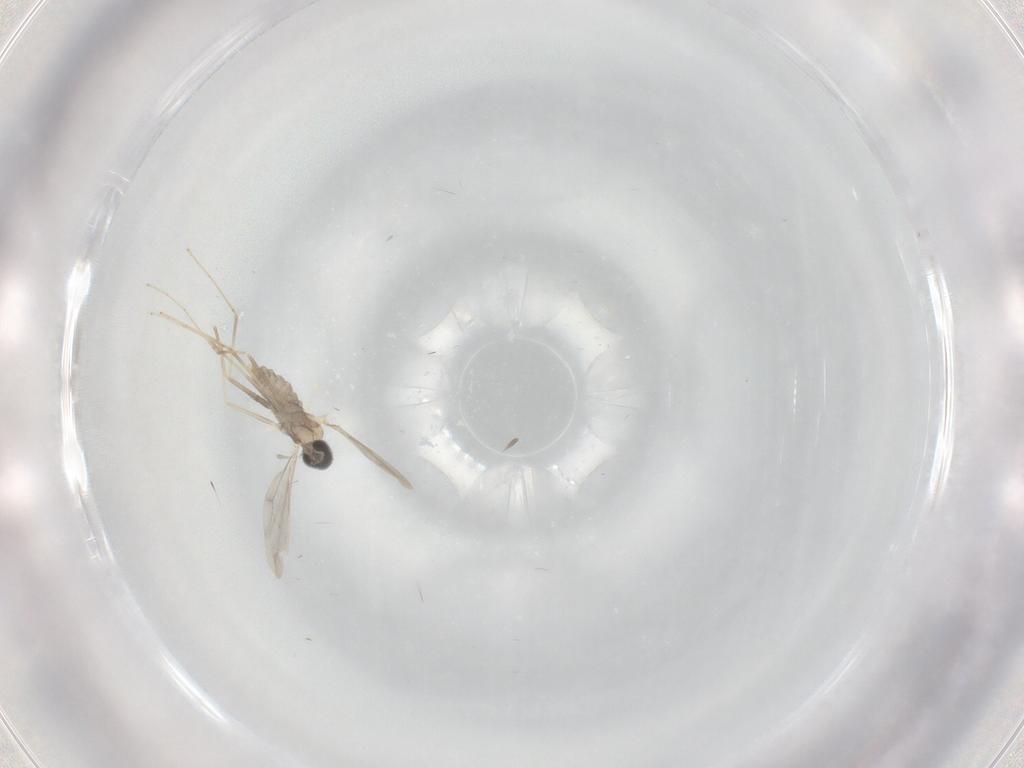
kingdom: Animalia
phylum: Arthropoda
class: Insecta
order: Diptera
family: Cecidomyiidae
